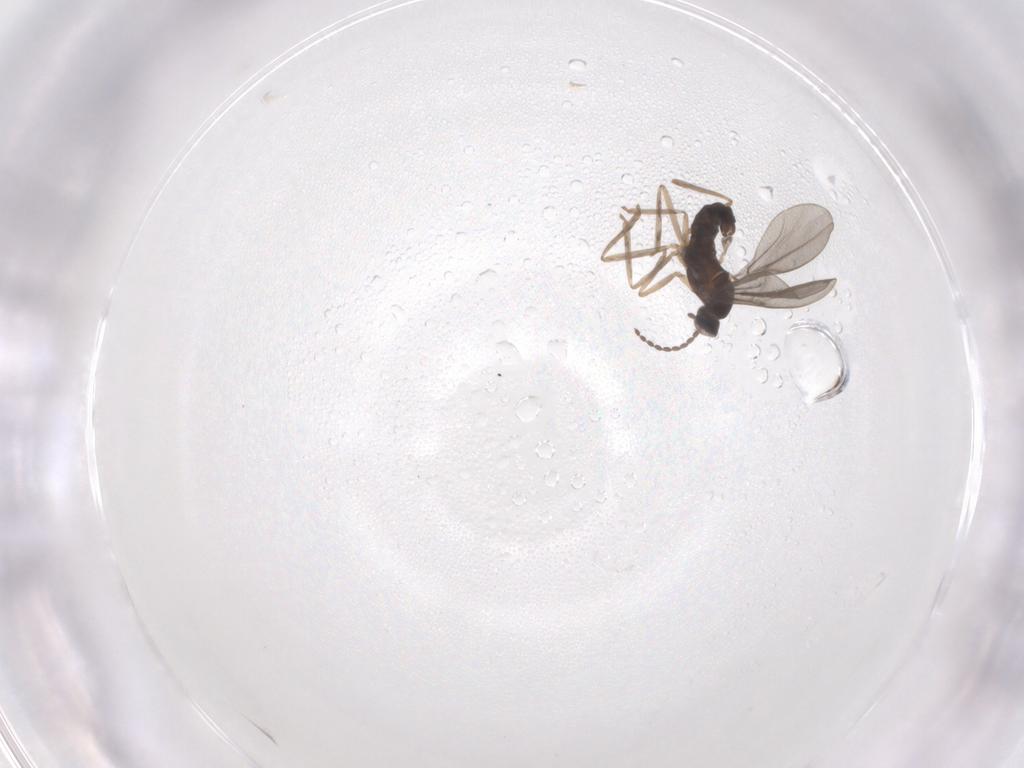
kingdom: Animalia
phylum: Arthropoda
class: Insecta
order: Diptera
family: Cecidomyiidae
